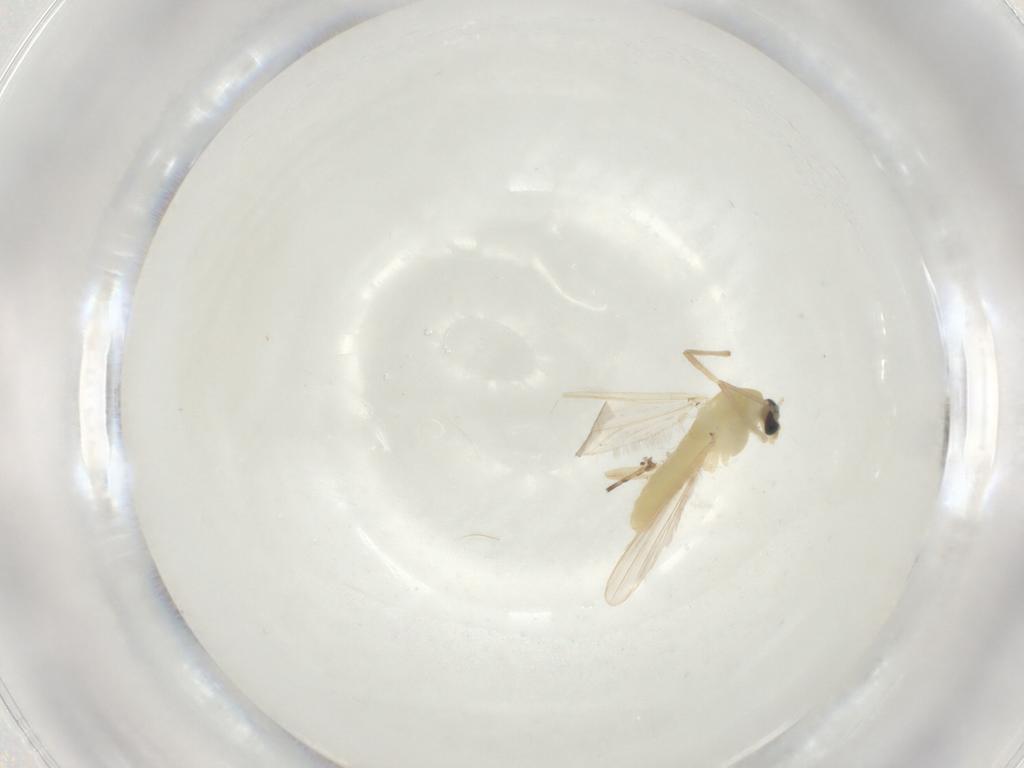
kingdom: Animalia
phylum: Arthropoda
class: Insecta
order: Diptera
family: Chironomidae
